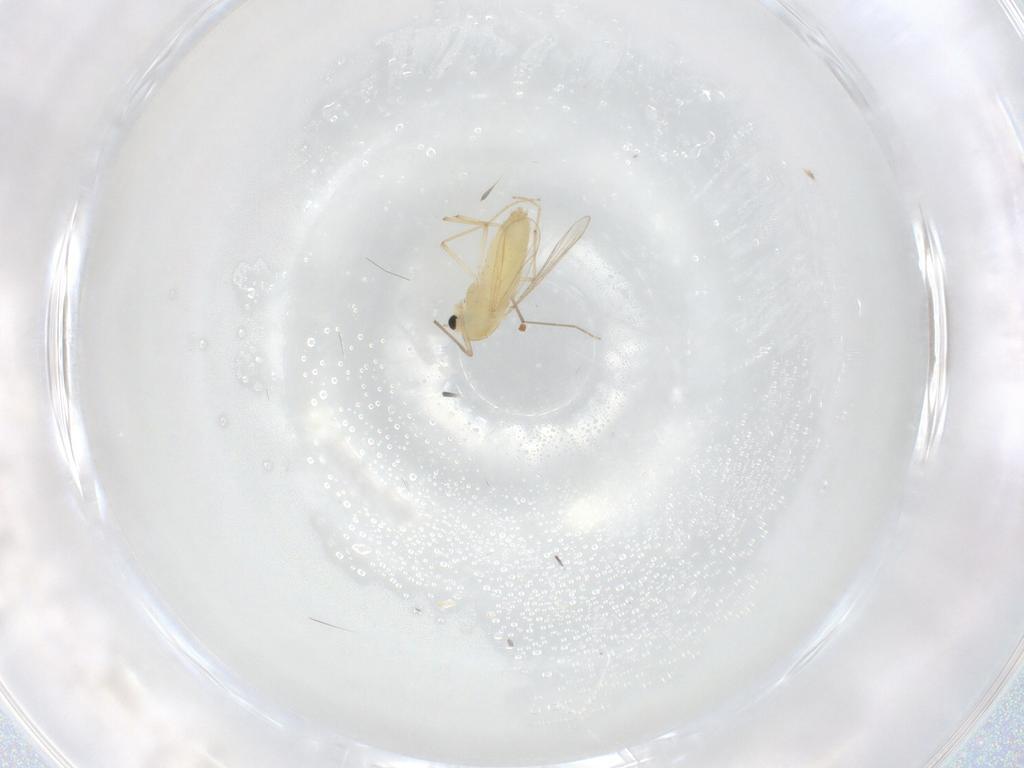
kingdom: Animalia
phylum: Arthropoda
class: Insecta
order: Diptera
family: Chironomidae
